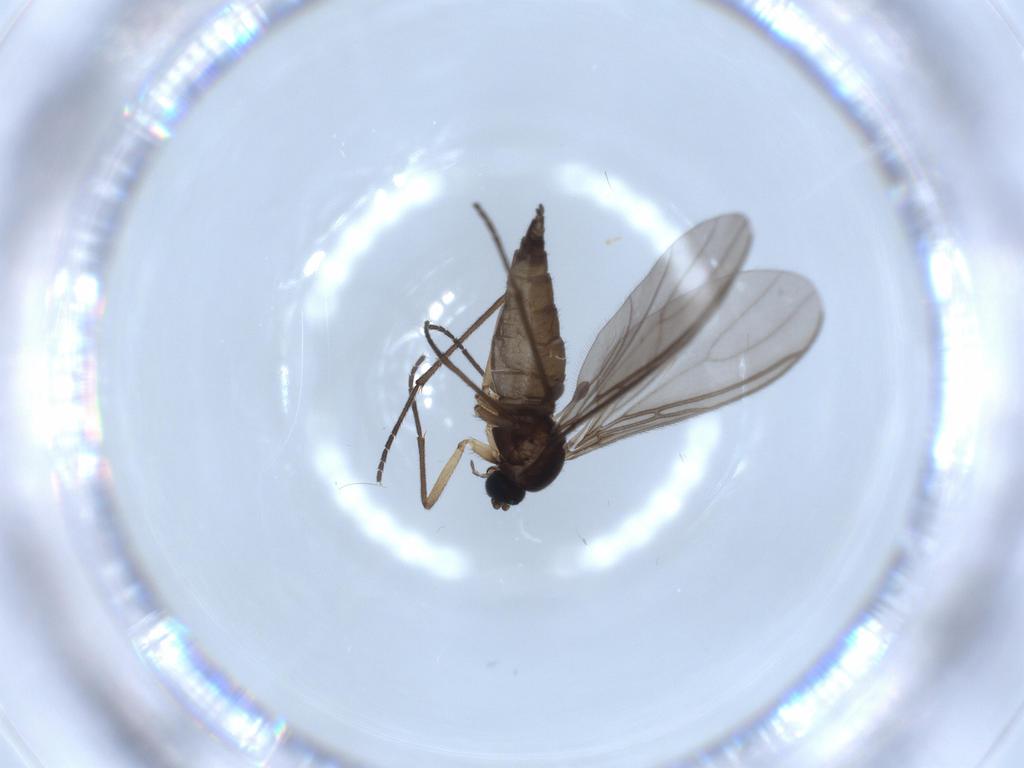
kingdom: Animalia
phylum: Arthropoda
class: Insecta
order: Diptera
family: Sciaridae
